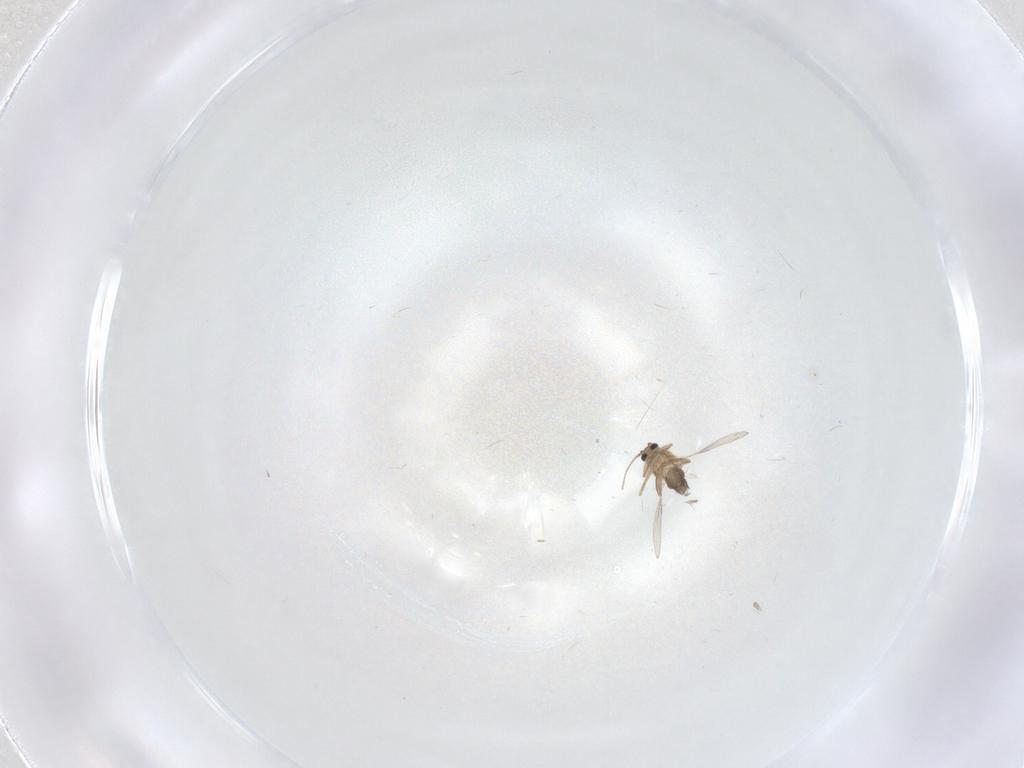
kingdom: Animalia
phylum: Arthropoda
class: Insecta
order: Diptera
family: Ceratopogonidae
